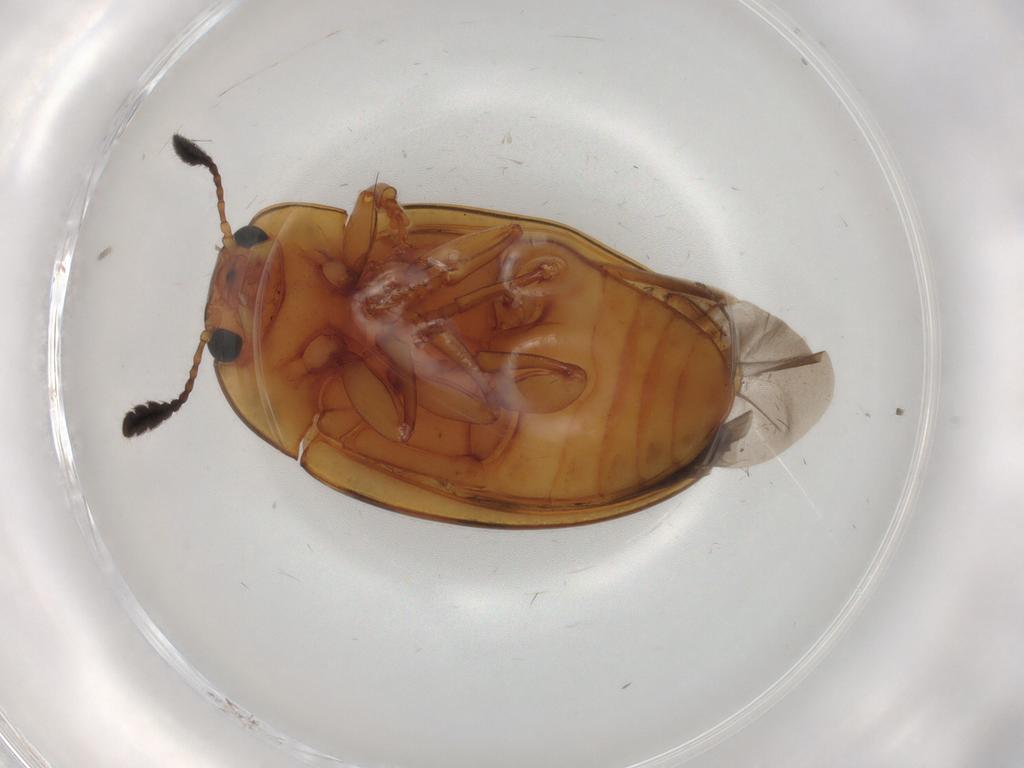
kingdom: Animalia
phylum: Arthropoda
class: Insecta
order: Coleoptera
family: Erotylidae
